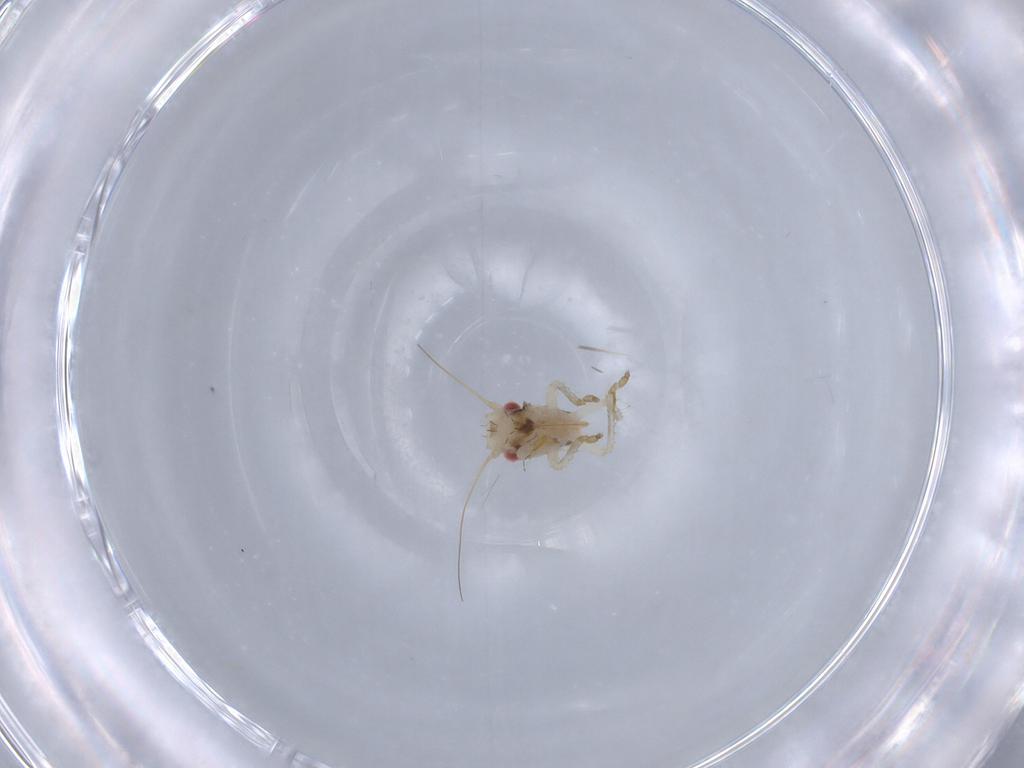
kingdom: Animalia
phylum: Arthropoda
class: Insecta
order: Hemiptera
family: Cicadellidae
